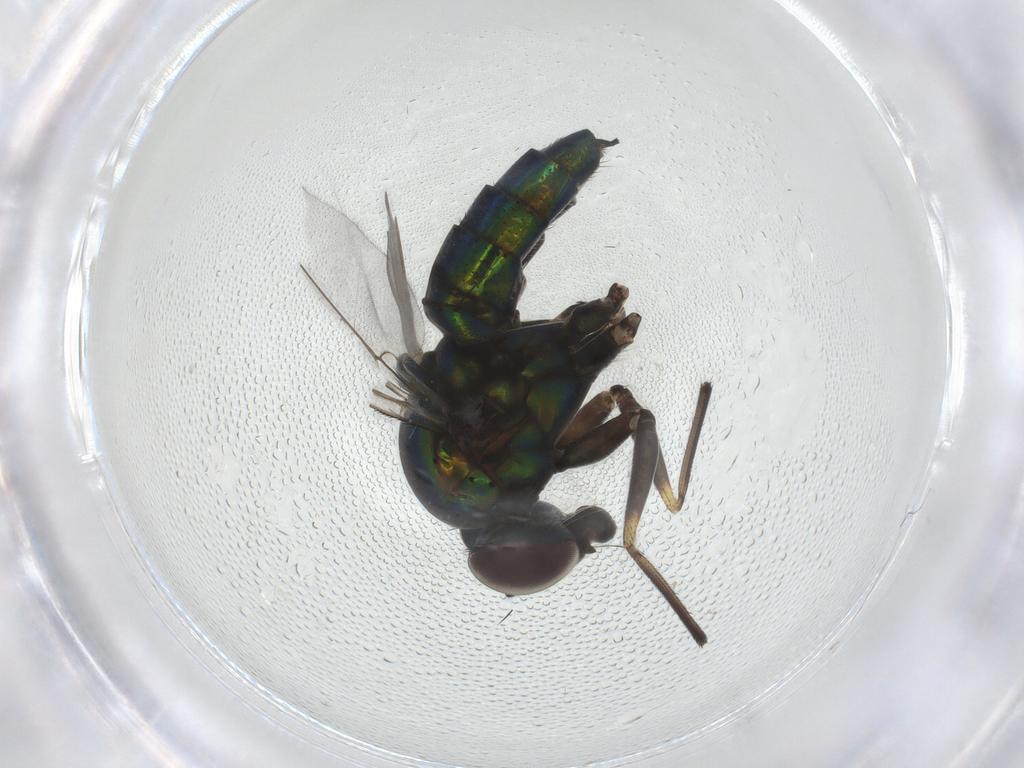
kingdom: Animalia
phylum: Arthropoda
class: Insecta
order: Diptera
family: Dolichopodidae
